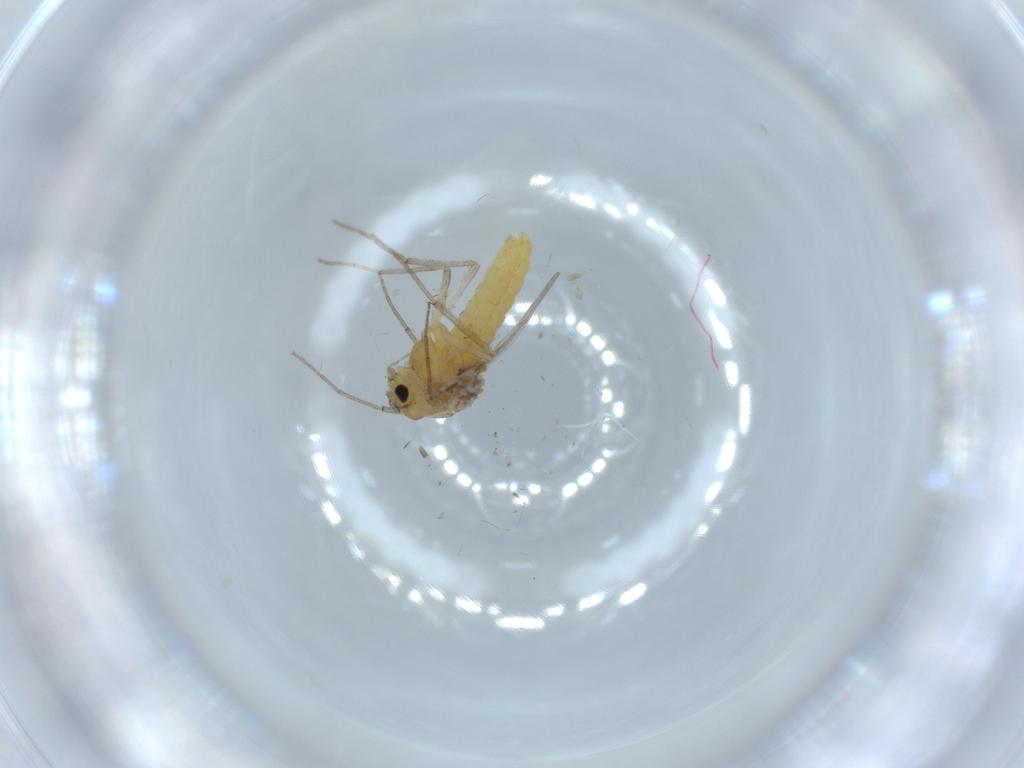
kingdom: Animalia
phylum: Arthropoda
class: Insecta
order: Diptera
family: Chironomidae
